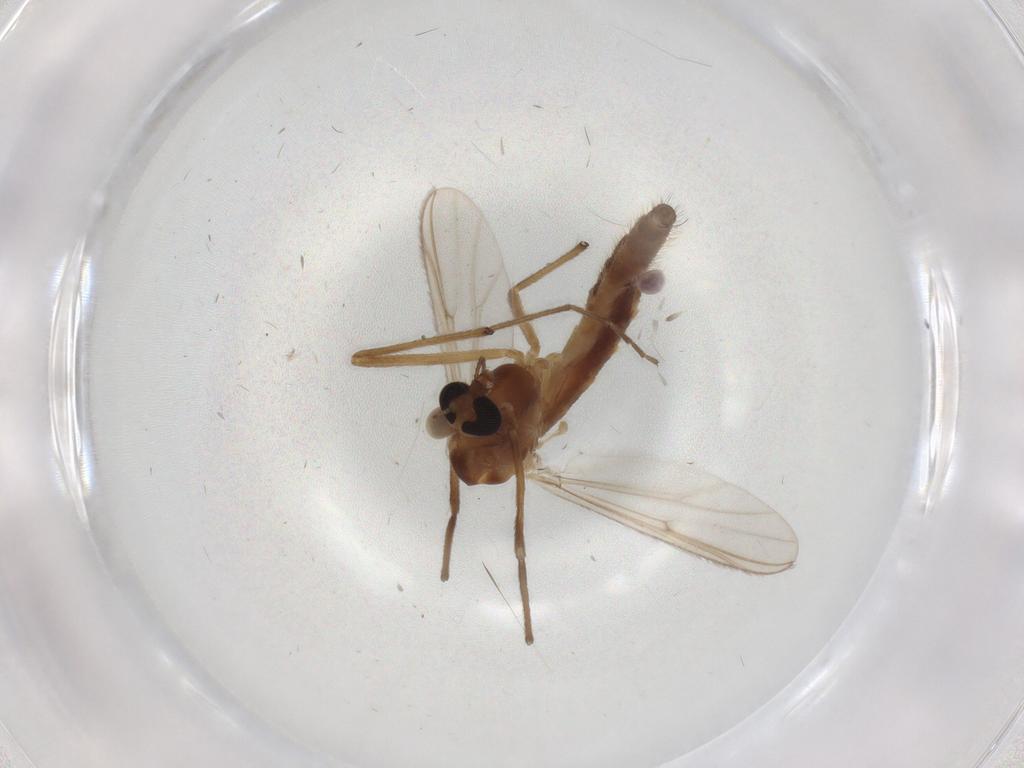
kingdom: Animalia
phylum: Arthropoda
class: Insecta
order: Diptera
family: Chironomidae
